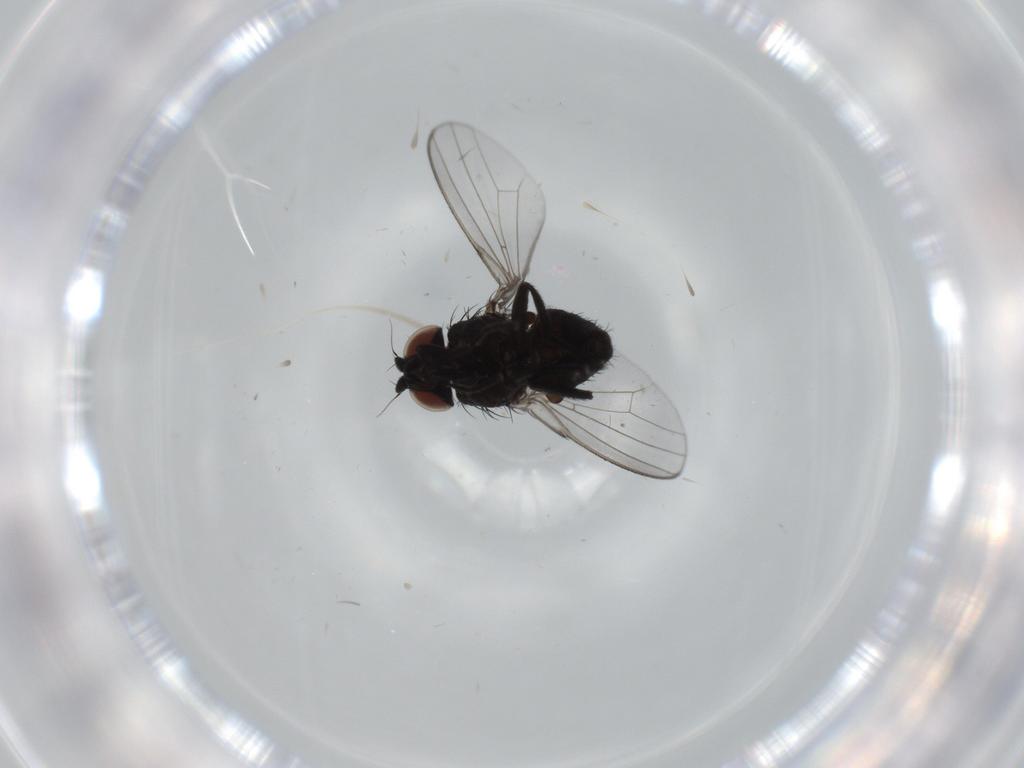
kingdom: Animalia
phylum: Arthropoda
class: Insecta
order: Diptera
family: Milichiidae
